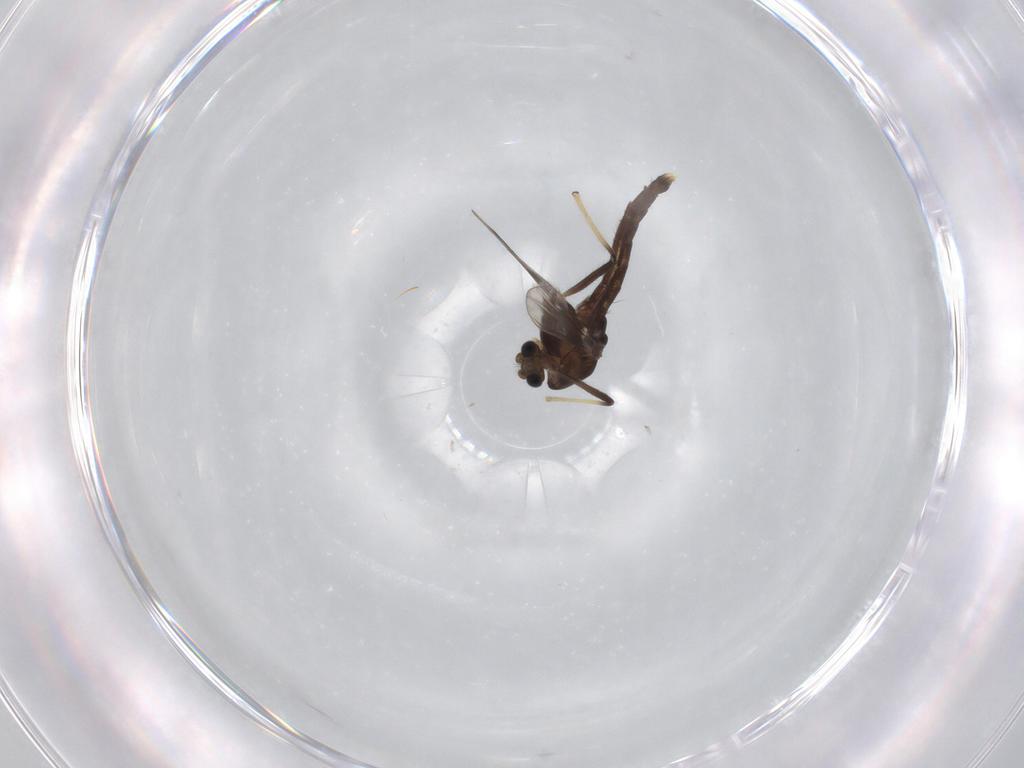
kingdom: Animalia
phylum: Arthropoda
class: Insecta
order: Diptera
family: Chironomidae
